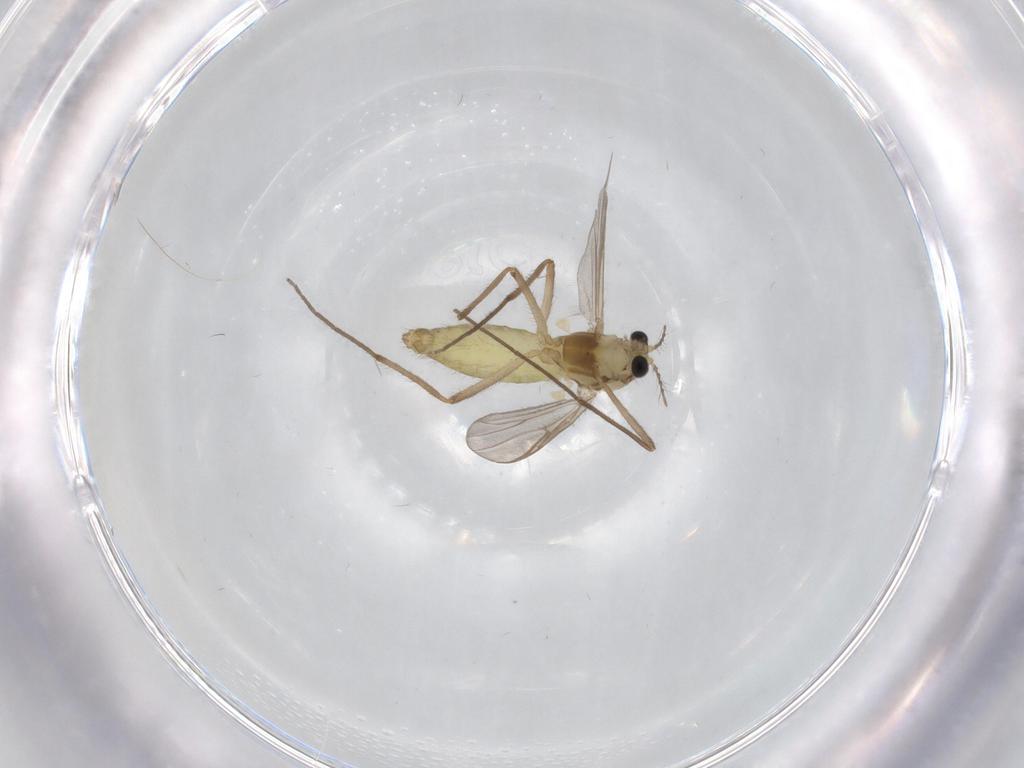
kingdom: Animalia
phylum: Arthropoda
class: Insecta
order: Diptera
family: Chironomidae
